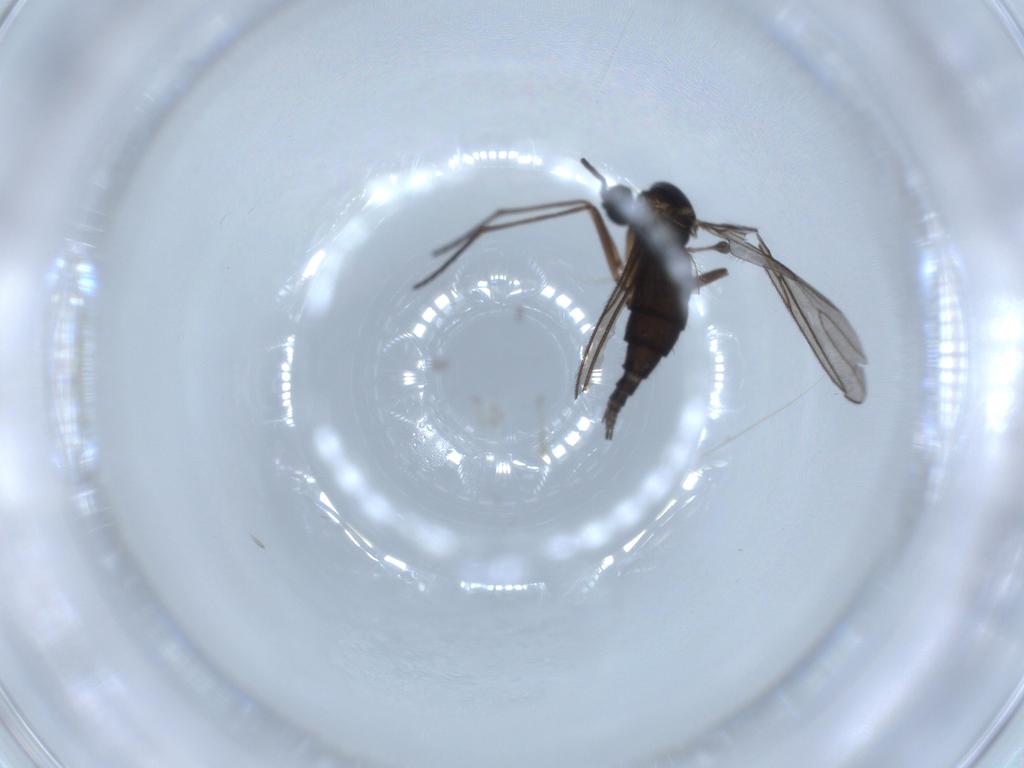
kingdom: Animalia
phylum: Arthropoda
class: Insecta
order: Diptera
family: Sciaridae
